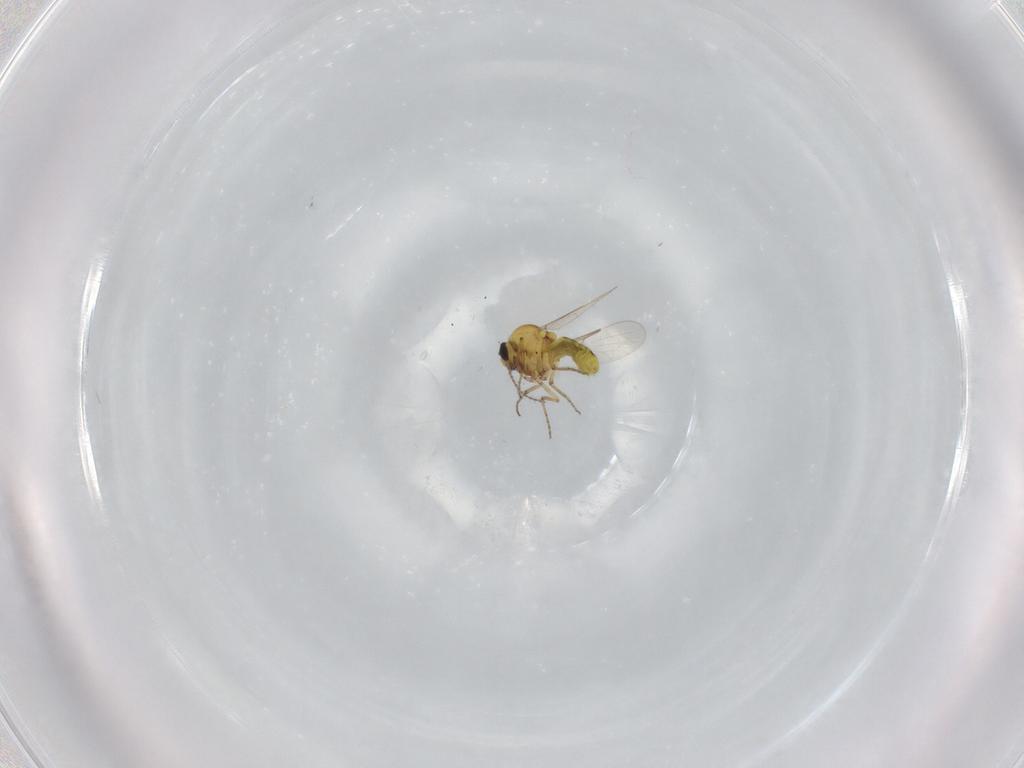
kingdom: Animalia
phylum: Arthropoda
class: Insecta
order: Diptera
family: Ceratopogonidae
